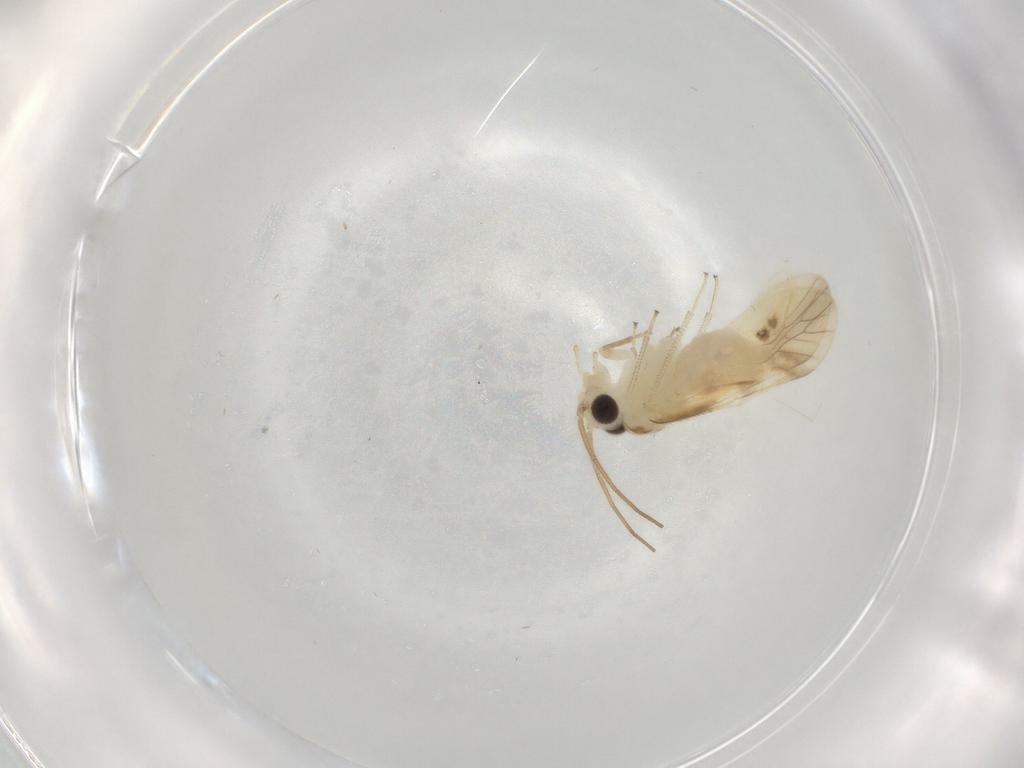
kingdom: Animalia
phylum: Arthropoda
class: Insecta
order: Psocodea
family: Caeciliusidae
